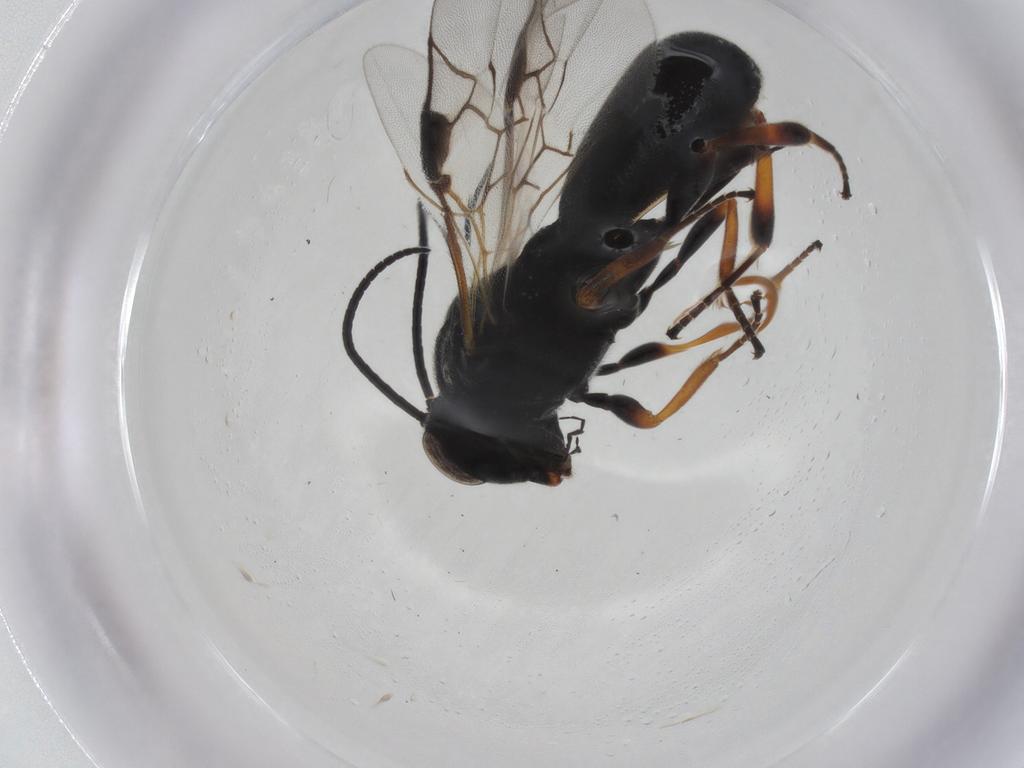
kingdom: Animalia
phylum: Arthropoda
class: Insecta
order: Hymenoptera
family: Braconidae
